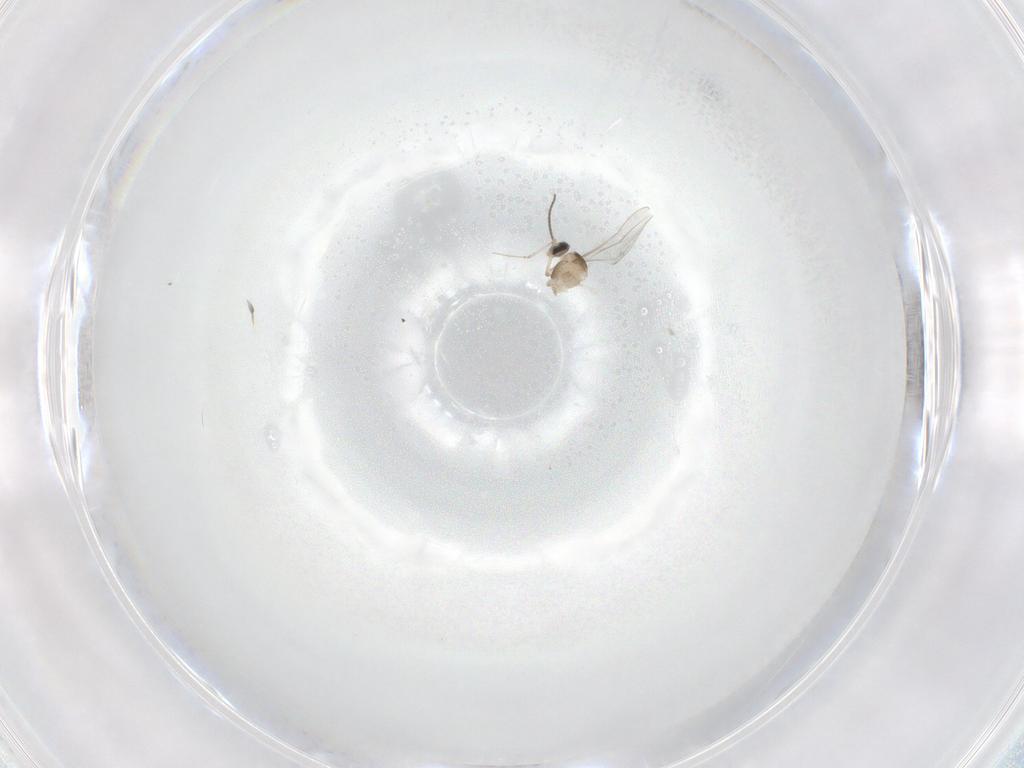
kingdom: Animalia
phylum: Arthropoda
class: Insecta
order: Diptera
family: Cecidomyiidae
